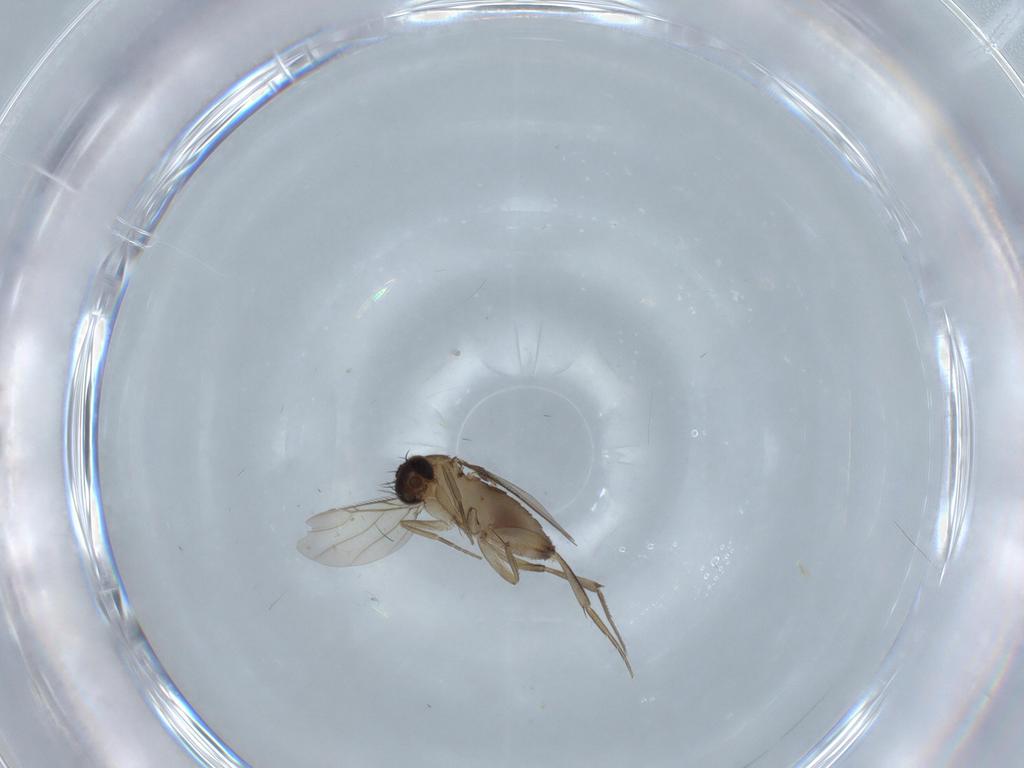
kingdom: Animalia
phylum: Arthropoda
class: Insecta
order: Diptera
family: Phoridae
